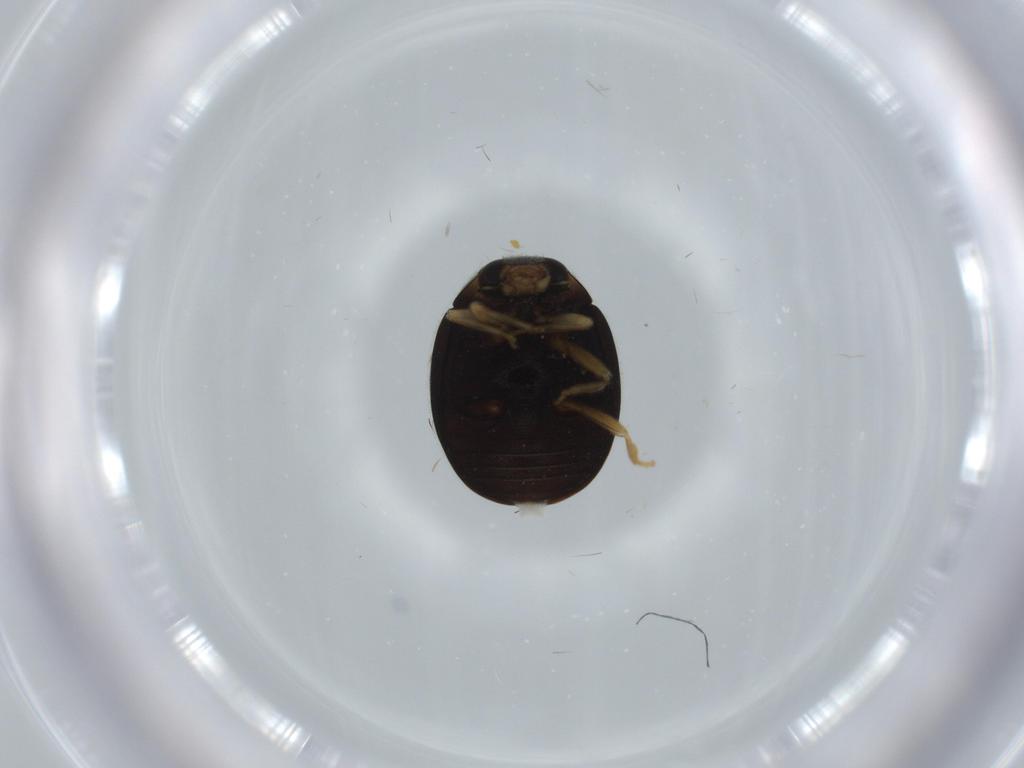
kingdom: Animalia
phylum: Arthropoda
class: Insecta
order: Coleoptera
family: Coccinellidae
